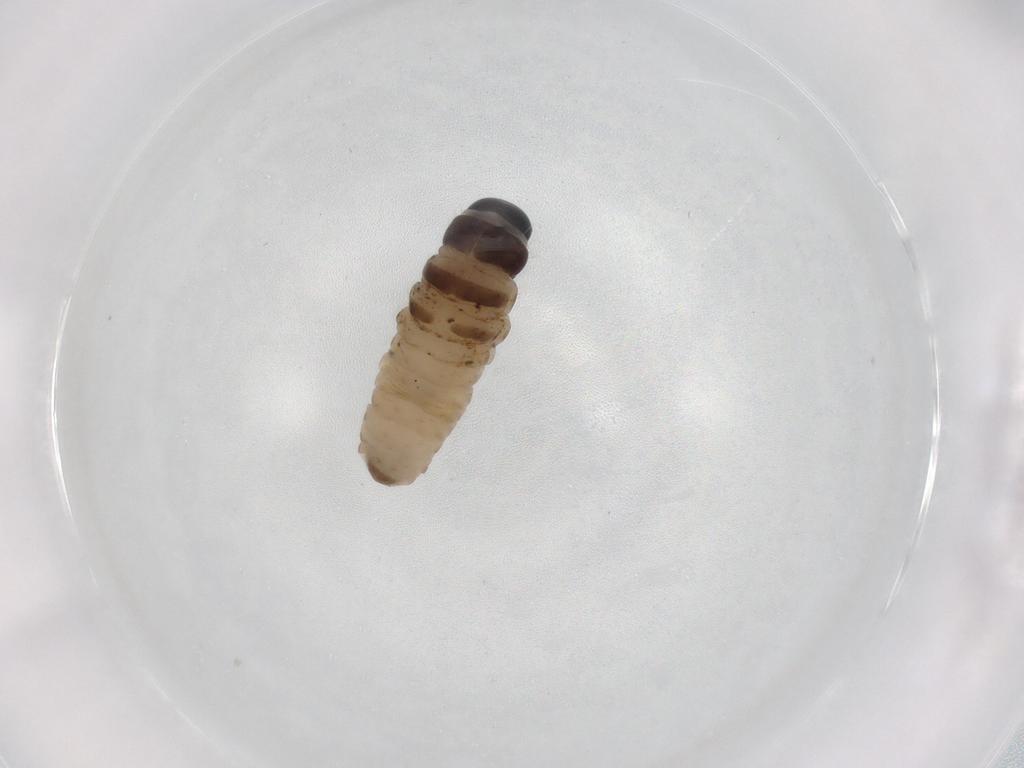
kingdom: Animalia
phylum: Arthropoda
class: Insecta
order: Lepidoptera
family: Psychidae
